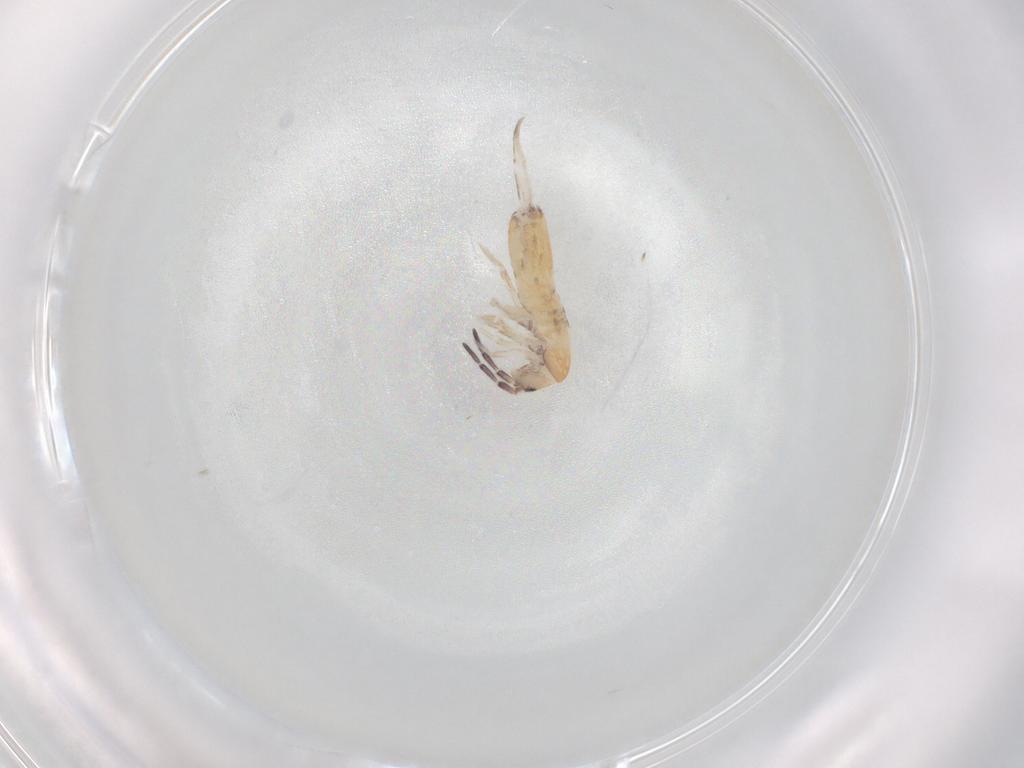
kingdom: Animalia
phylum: Arthropoda
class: Collembola
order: Entomobryomorpha
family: Entomobryidae
